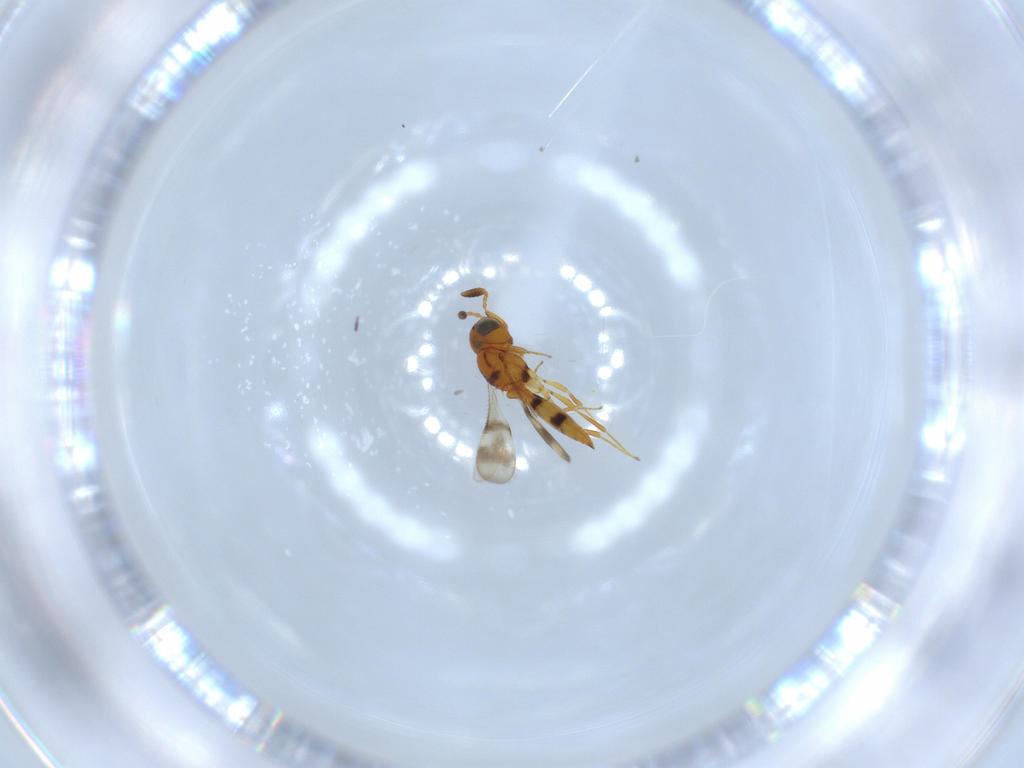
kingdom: Animalia
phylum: Arthropoda
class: Insecta
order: Hymenoptera
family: Scelionidae
